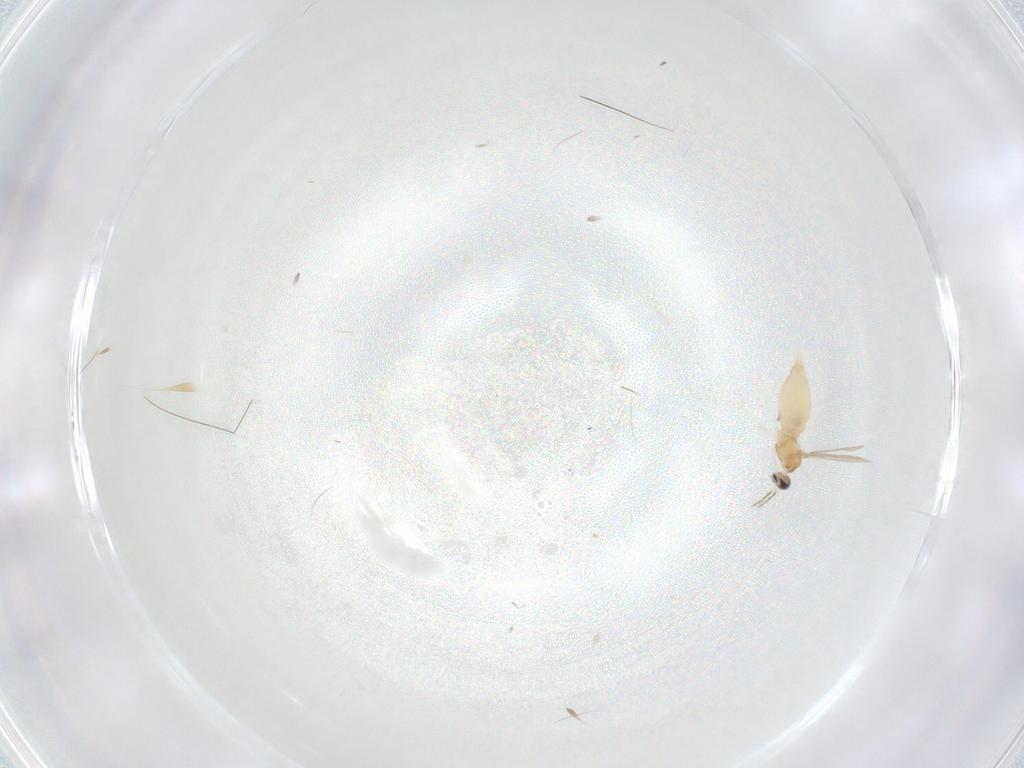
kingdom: Animalia
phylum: Arthropoda
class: Insecta
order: Diptera
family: Cecidomyiidae
